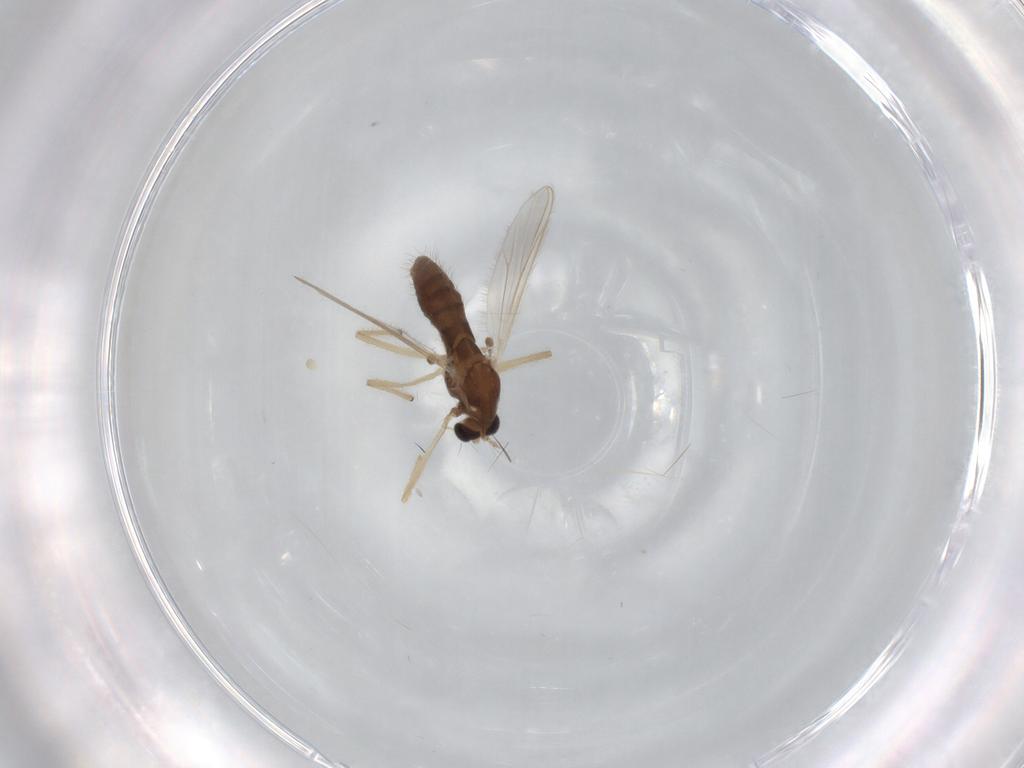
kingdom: Animalia
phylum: Arthropoda
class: Insecta
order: Diptera
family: Chironomidae
